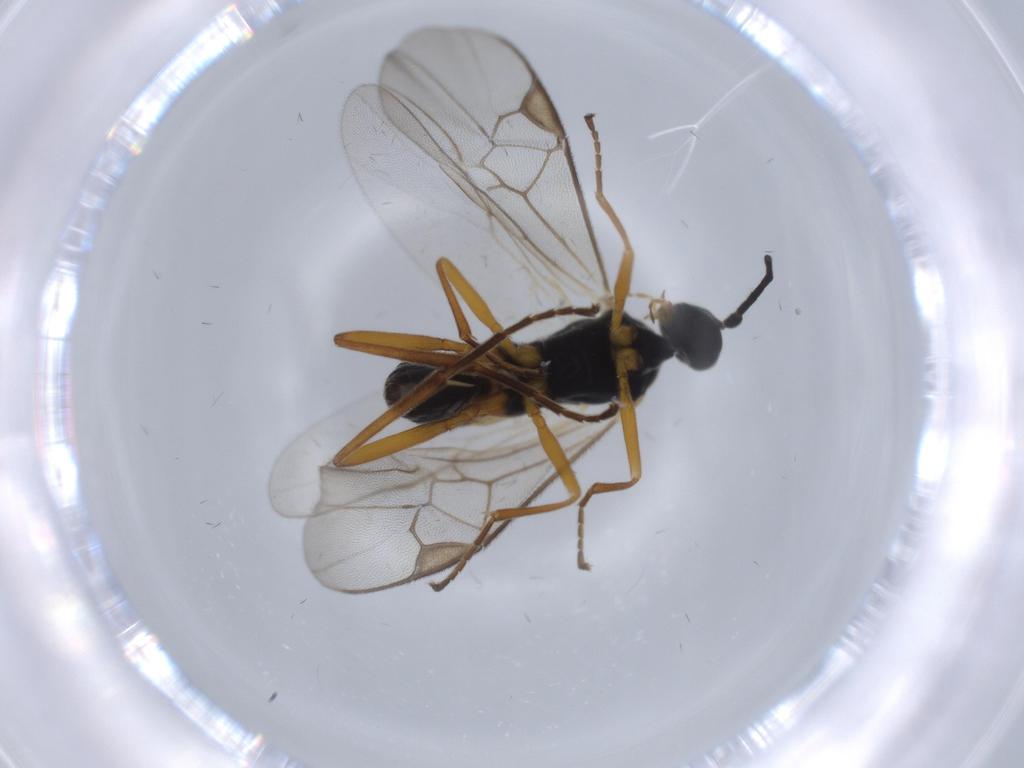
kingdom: Animalia
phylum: Arthropoda
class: Insecta
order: Hymenoptera
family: Braconidae
